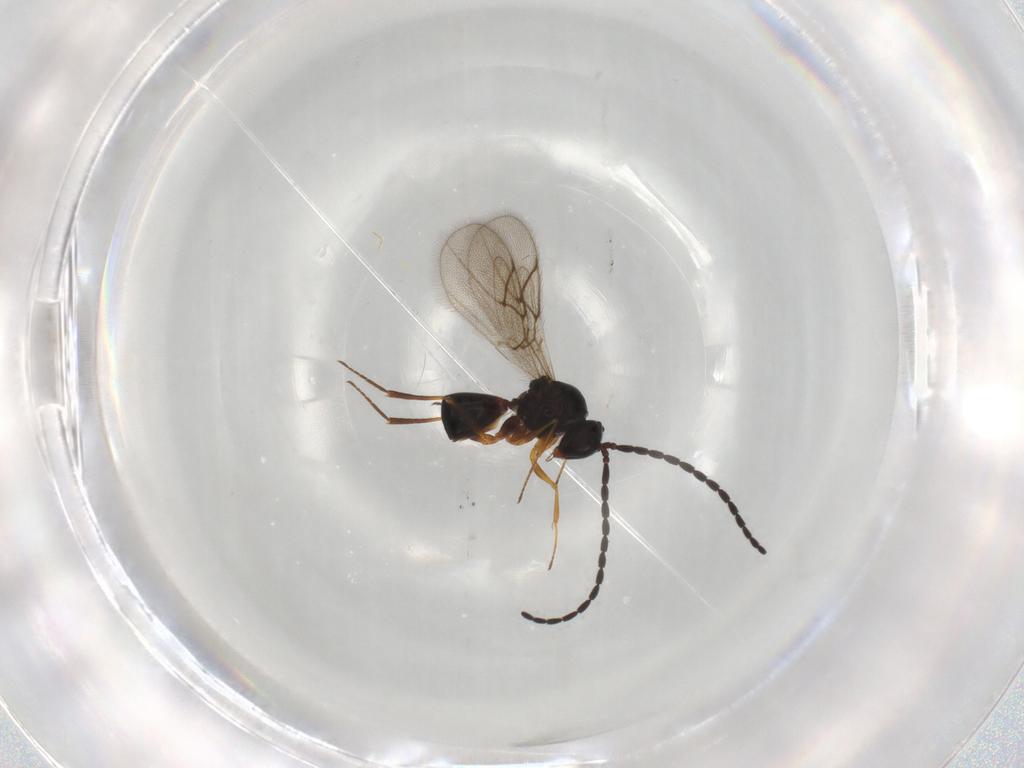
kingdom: Animalia
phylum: Arthropoda
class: Insecta
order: Hymenoptera
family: Figitidae
